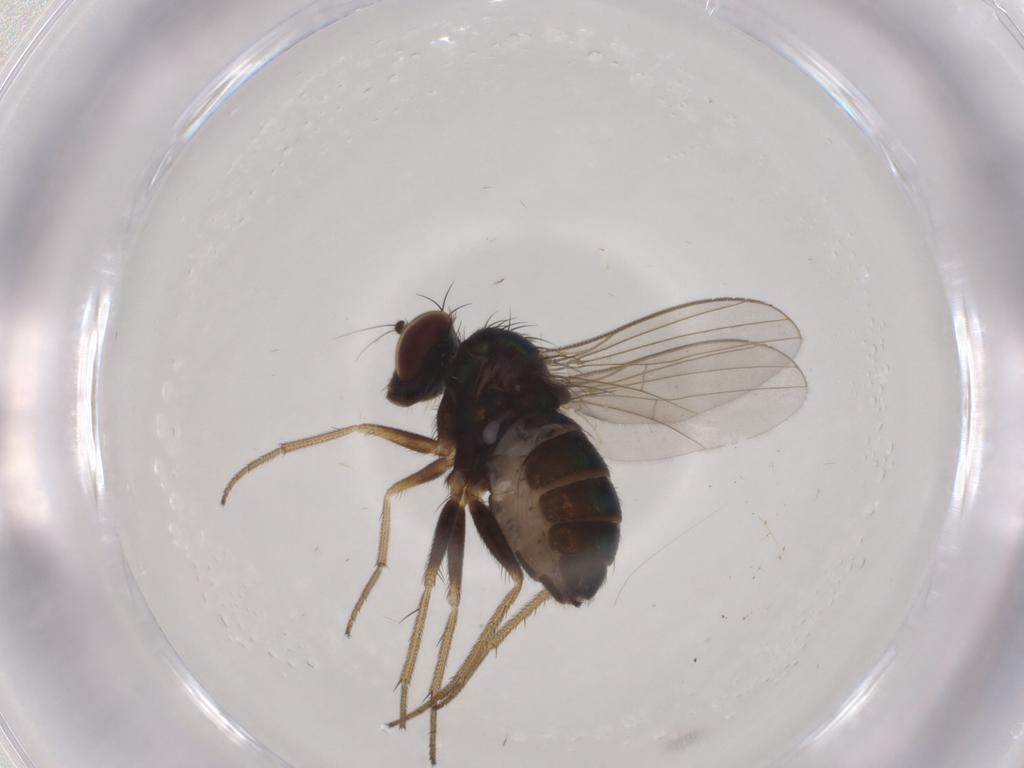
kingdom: Animalia
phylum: Arthropoda
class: Insecta
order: Diptera
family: Dolichopodidae
